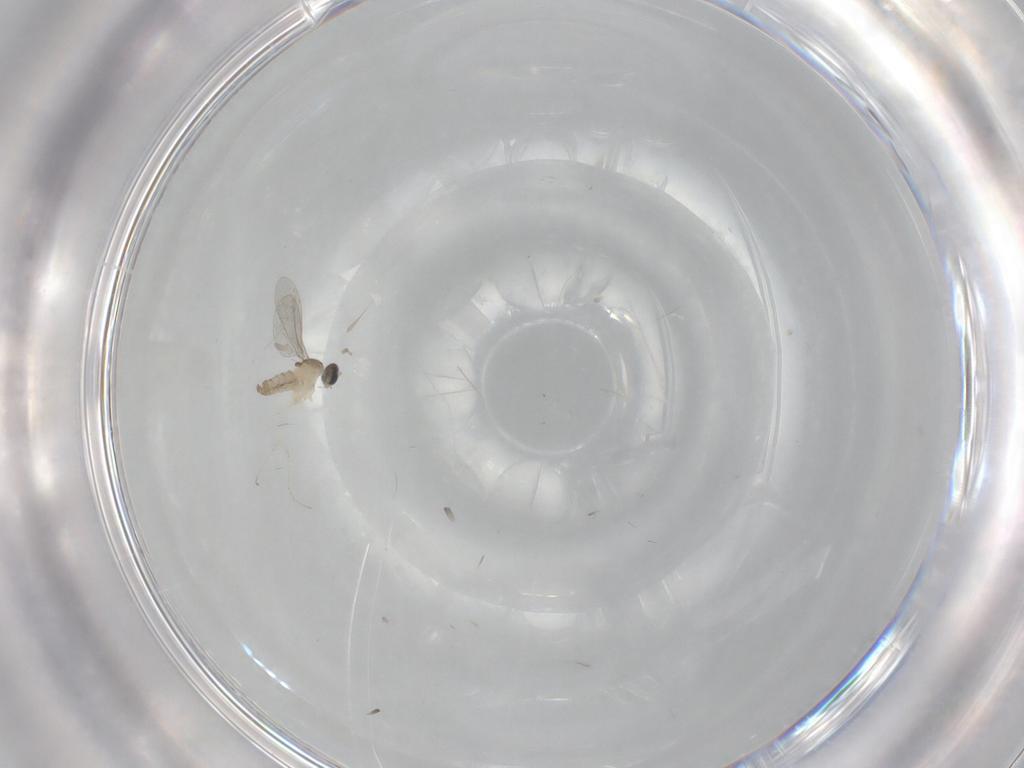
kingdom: Animalia
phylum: Arthropoda
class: Insecta
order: Diptera
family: Cecidomyiidae
